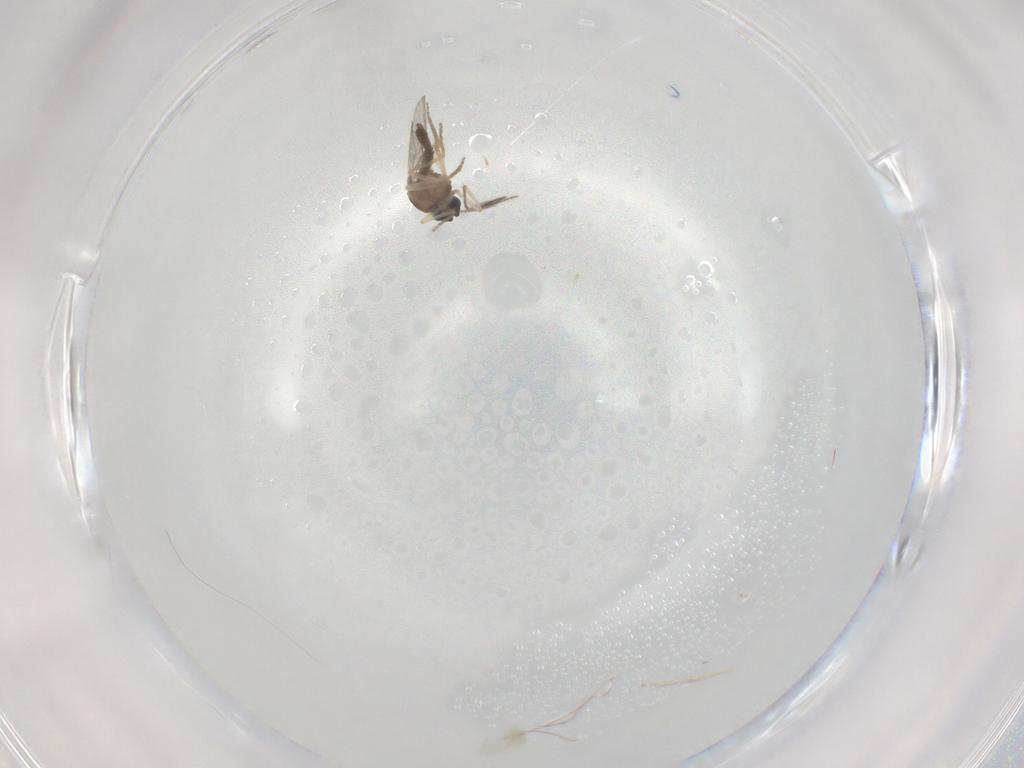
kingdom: Animalia
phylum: Arthropoda
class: Insecta
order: Diptera
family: Ceratopogonidae
